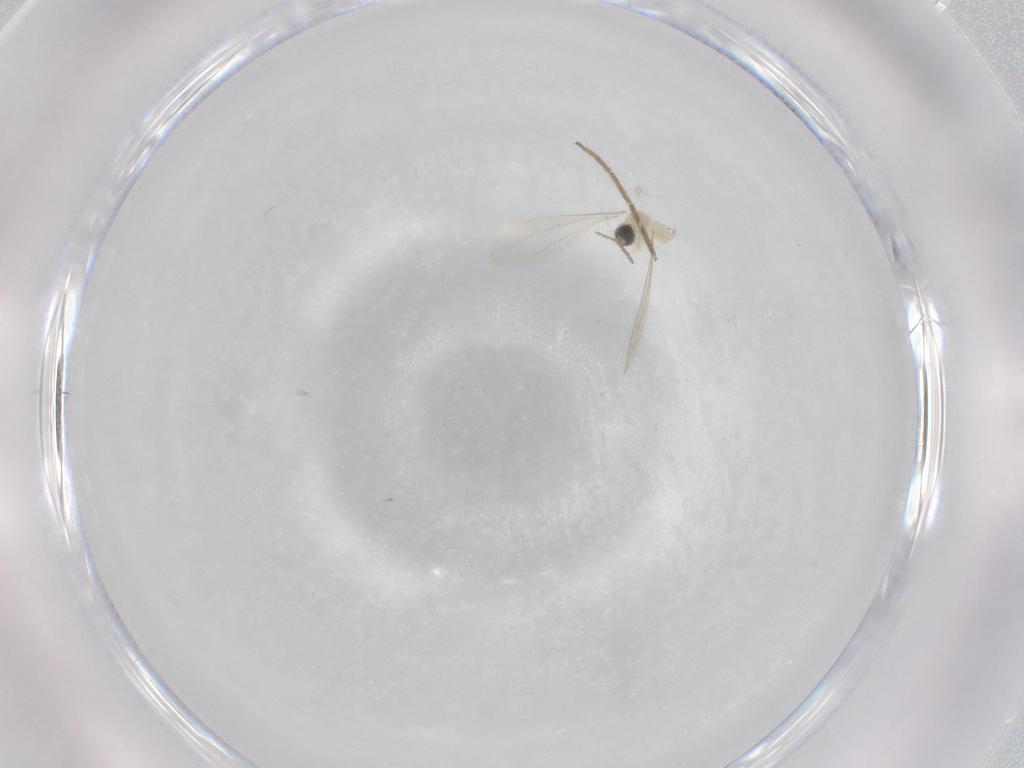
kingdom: Animalia
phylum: Arthropoda
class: Insecta
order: Diptera
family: Cecidomyiidae
